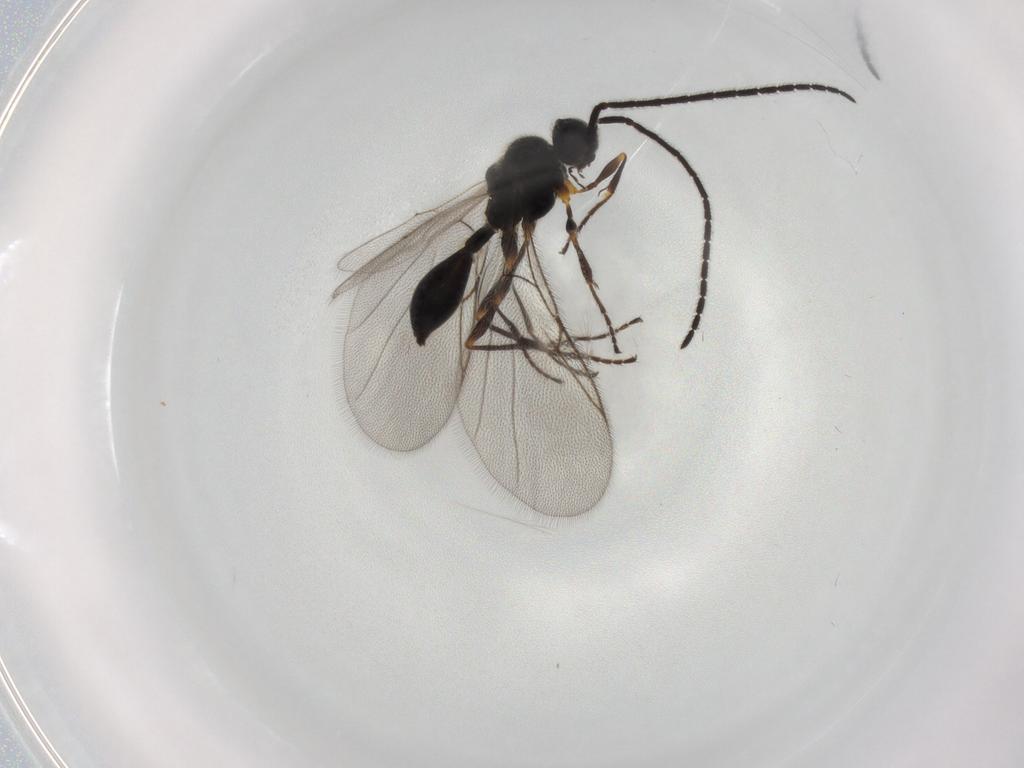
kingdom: Animalia
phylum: Arthropoda
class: Insecta
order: Hymenoptera
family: Diapriidae
